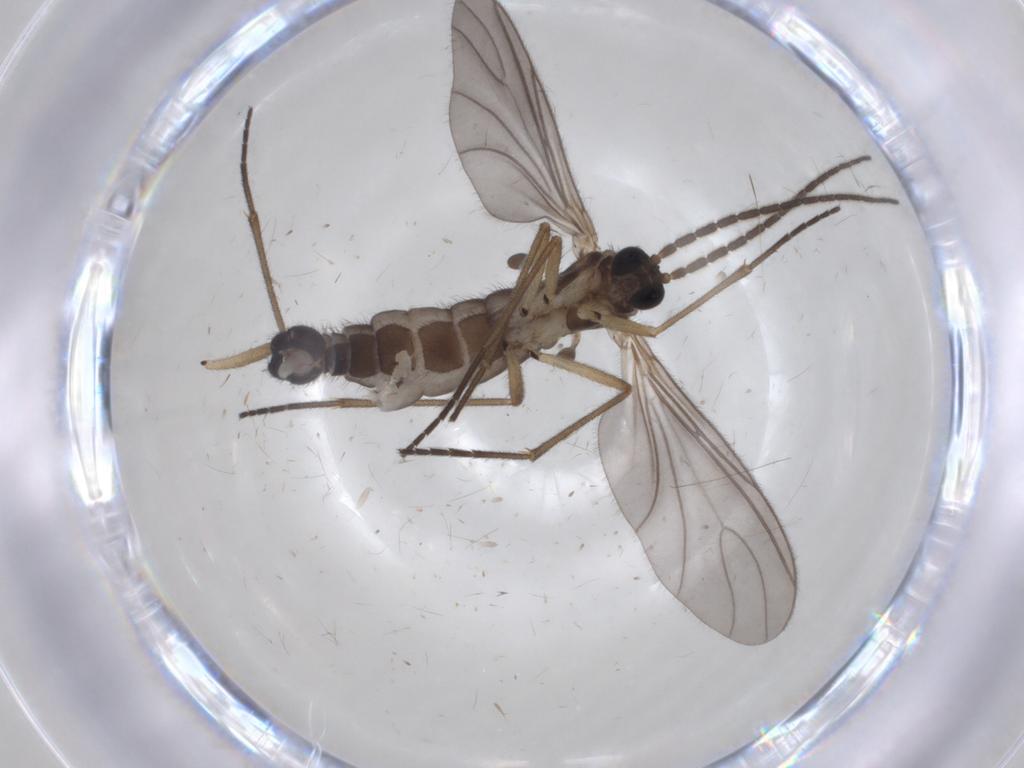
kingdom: Animalia
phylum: Arthropoda
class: Insecta
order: Diptera
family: Sciaridae
